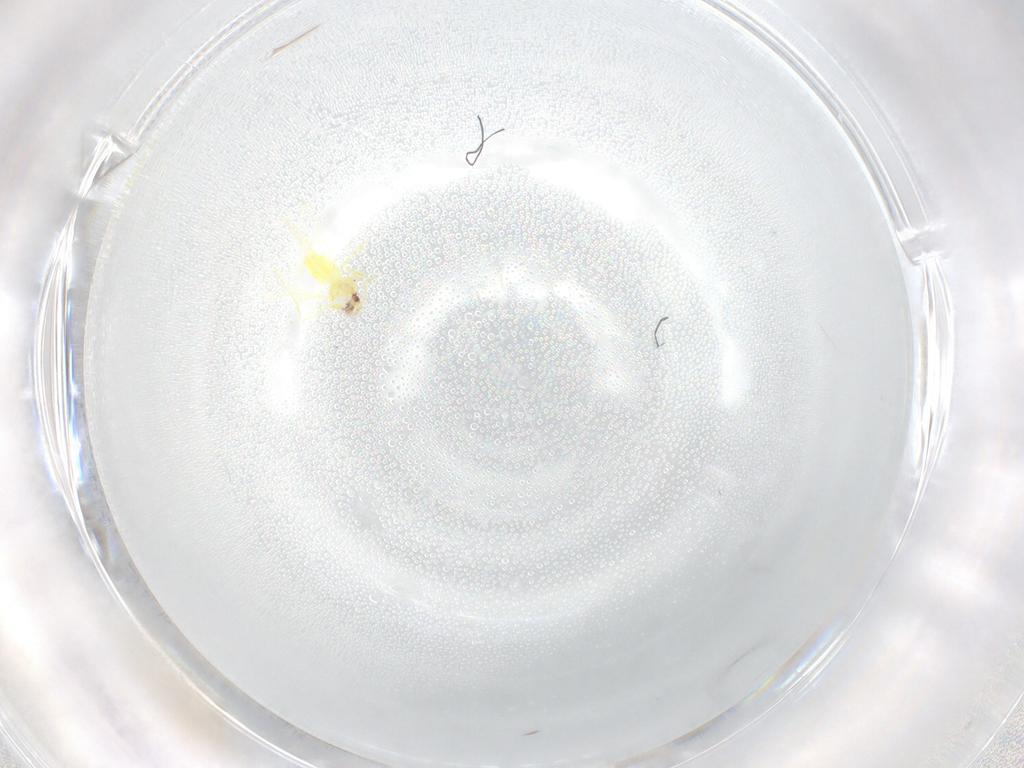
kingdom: Animalia
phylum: Arthropoda
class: Insecta
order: Hemiptera
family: Aleyrodidae
